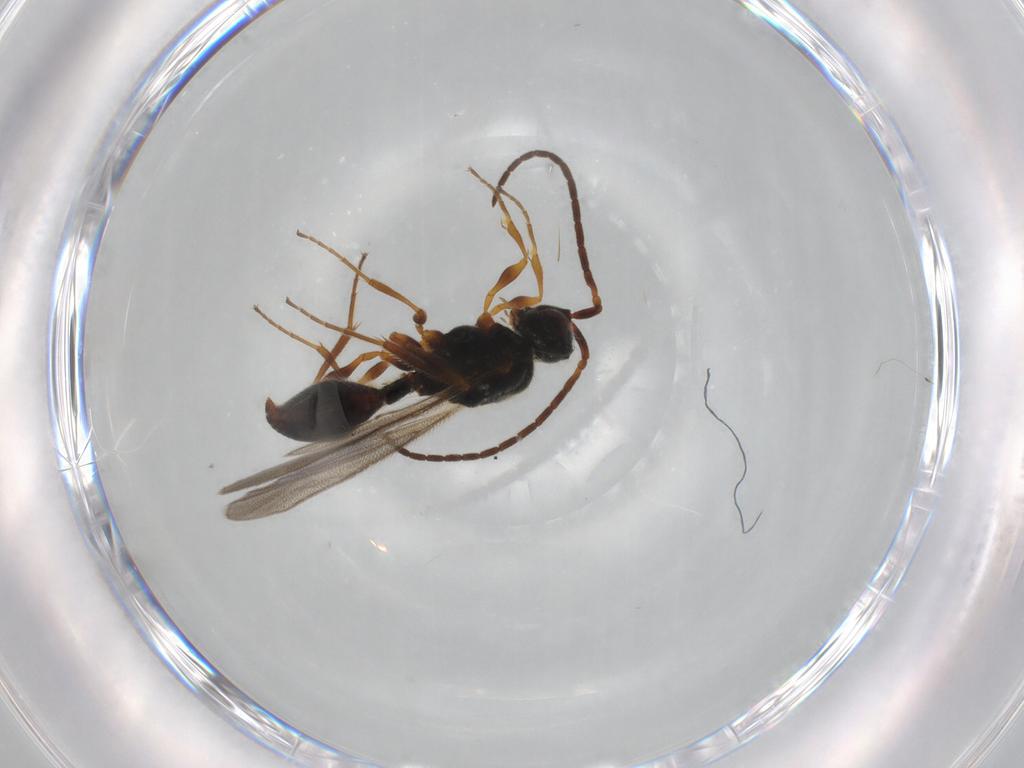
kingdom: Animalia
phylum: Arthropoda
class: Insecta
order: Hymenoptera
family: Diapriidae
